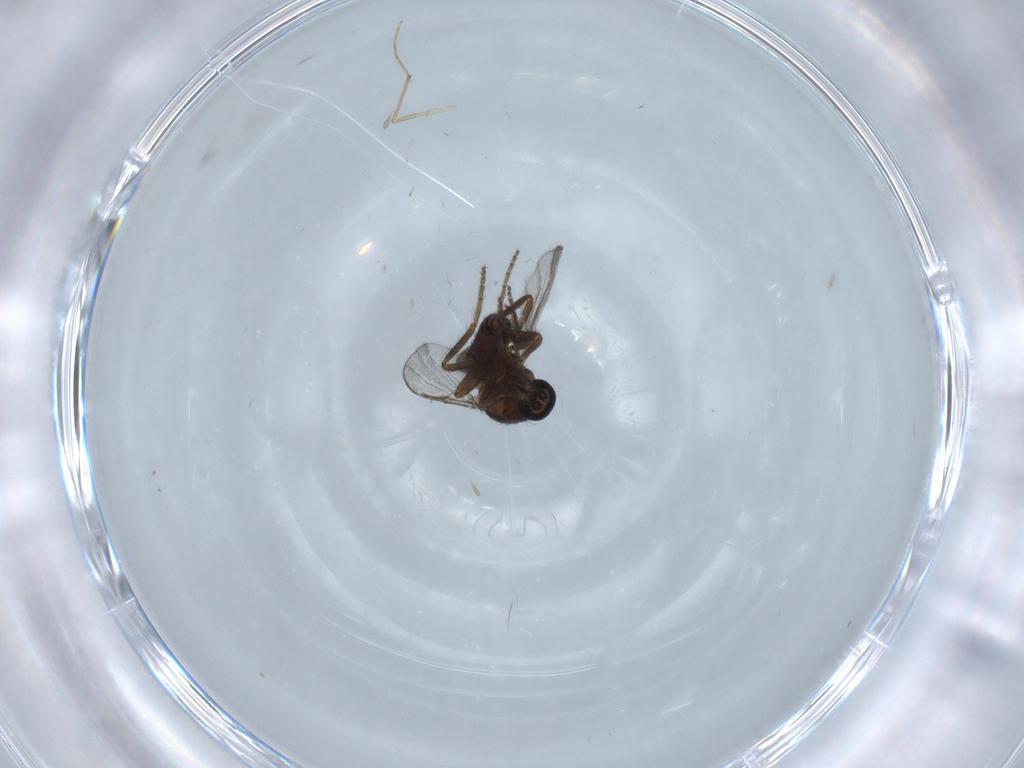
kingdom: Animalia
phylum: Arthropoda
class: Insecta
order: Diptera
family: Ceratopogonidae
